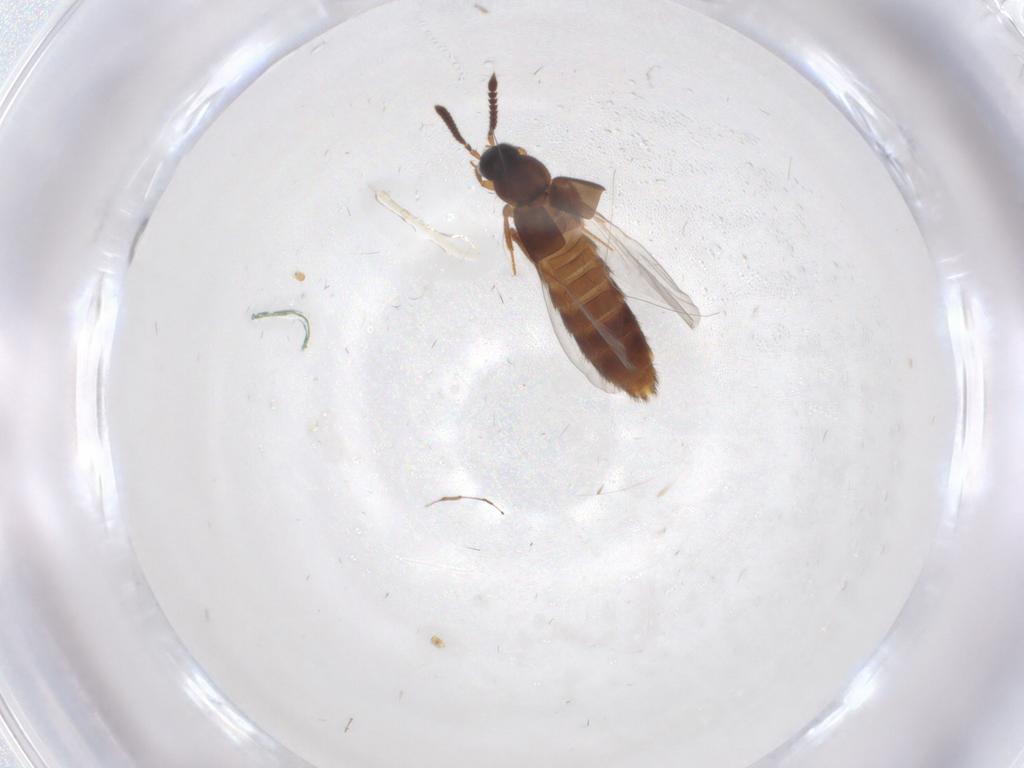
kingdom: Animalia
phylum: Arthropoda
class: Insecta
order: Coleoptera
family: Staphylinidae
